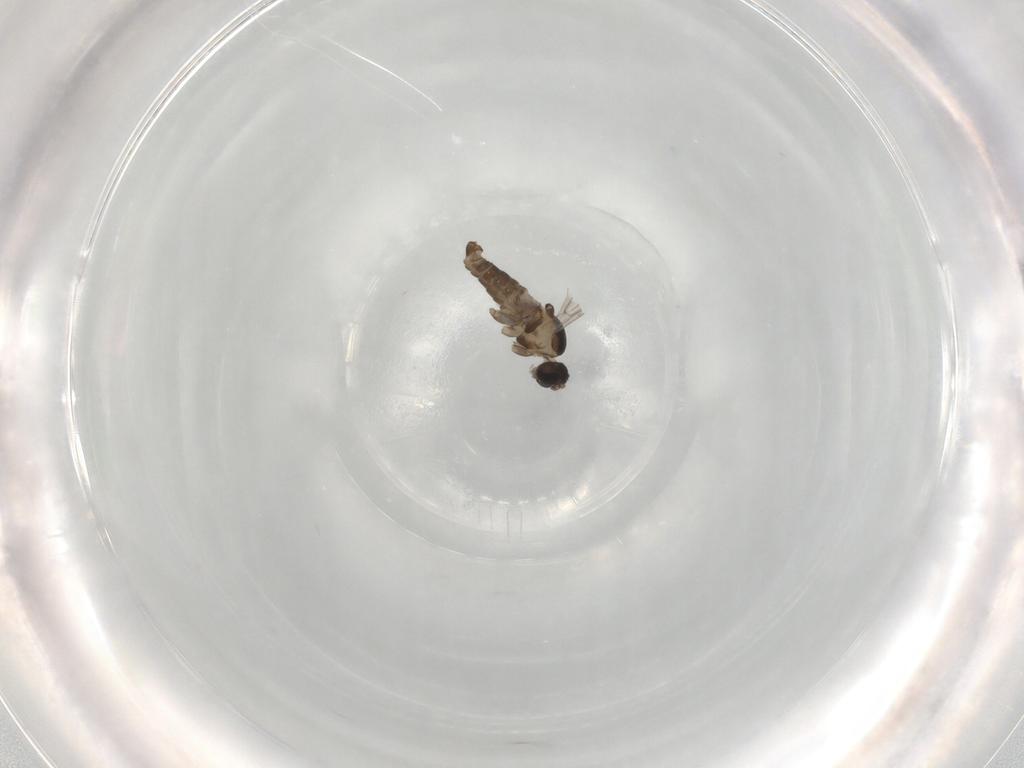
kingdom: Animalia
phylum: Arthropoda
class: Insecta
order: Diptera
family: Cecidomyiidae
